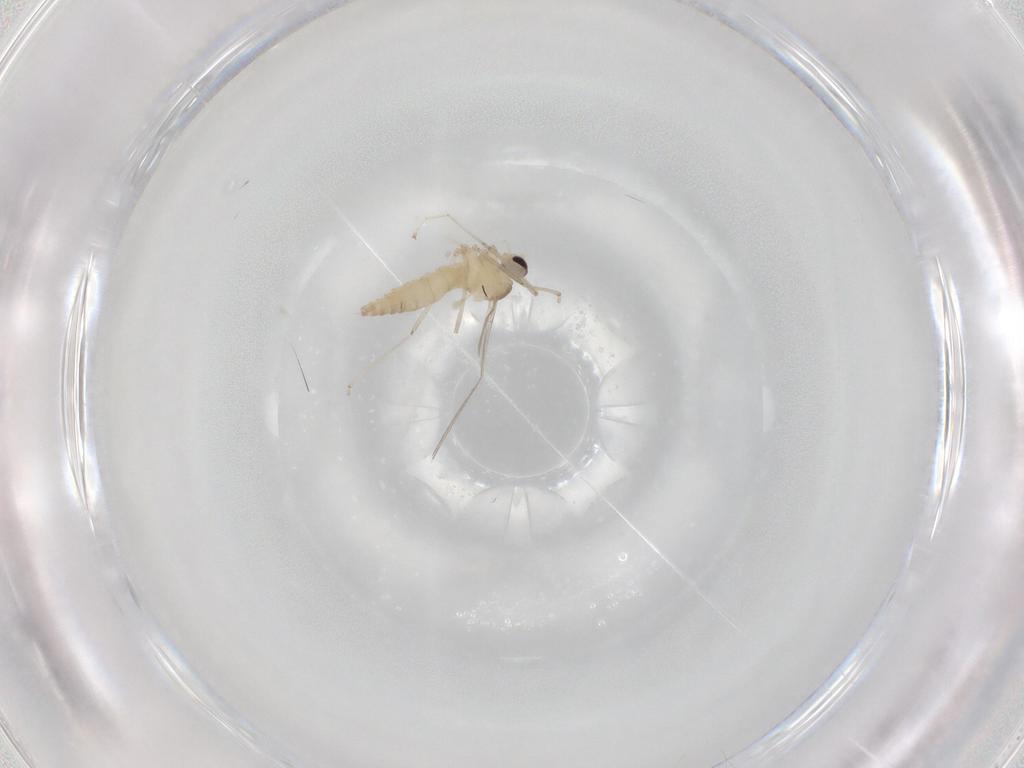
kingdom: Animalia
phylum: Arthropoda
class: Insecta
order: Diptera
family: Cecidomyiidae
